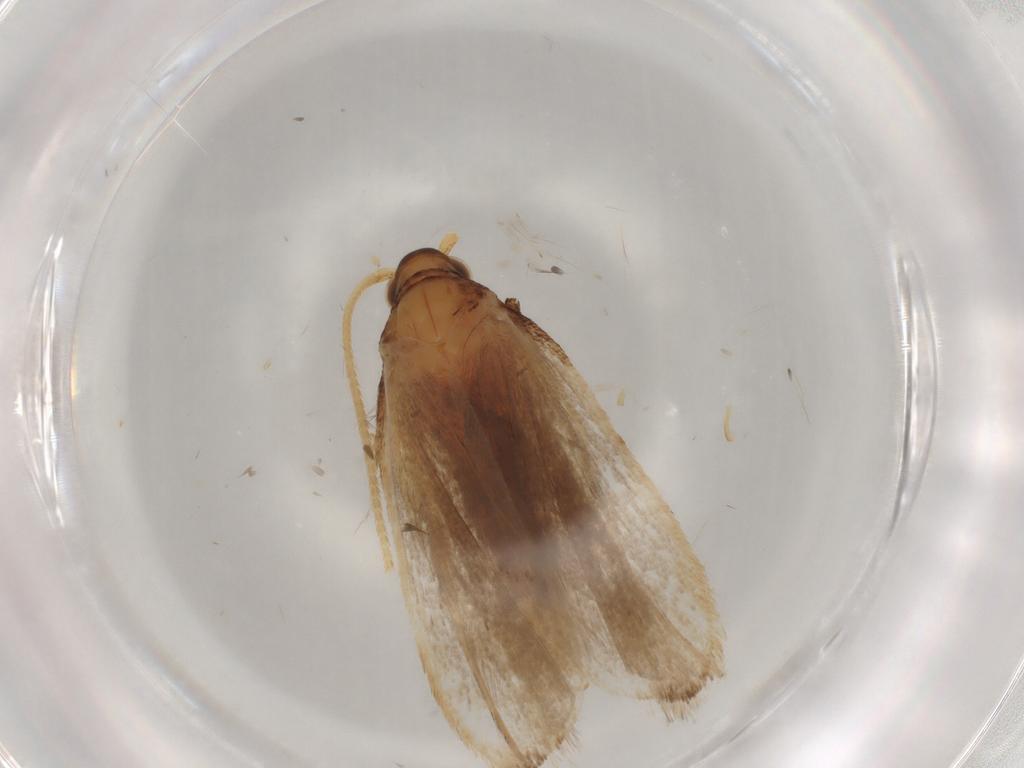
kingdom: Animalia
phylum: Arthropoda
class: Insecta
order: Lepidoptera
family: Lecithoceridae
